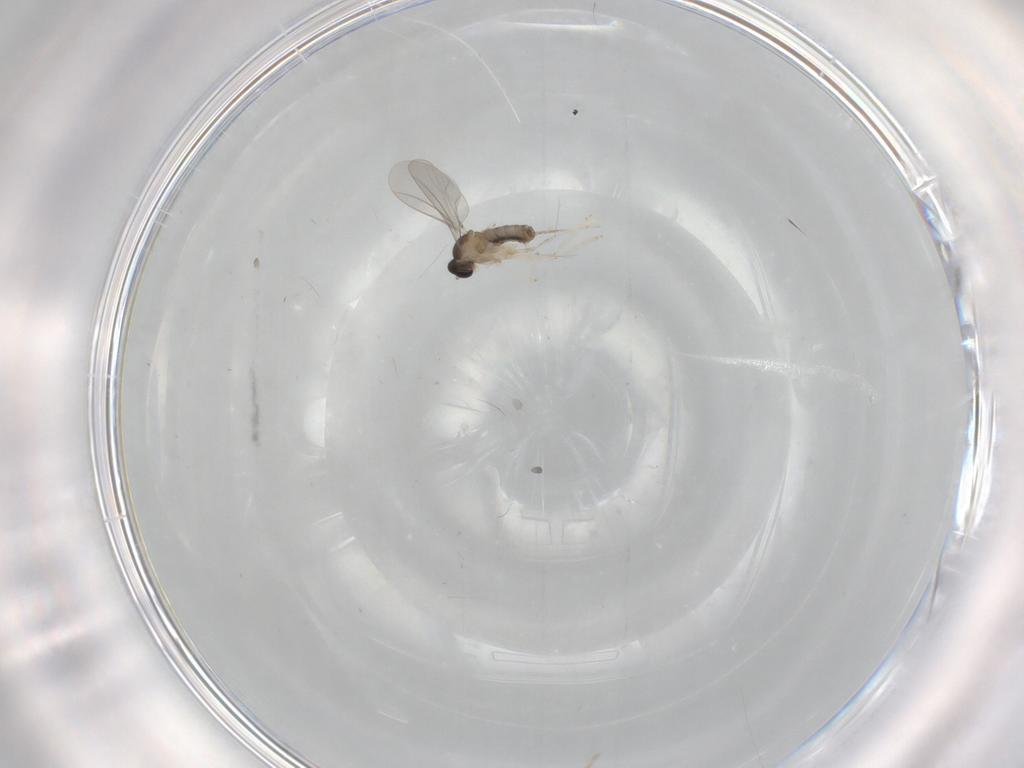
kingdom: Animalia
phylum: Arthropoda
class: Insecta
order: Diptera
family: Cecidomyiidae
